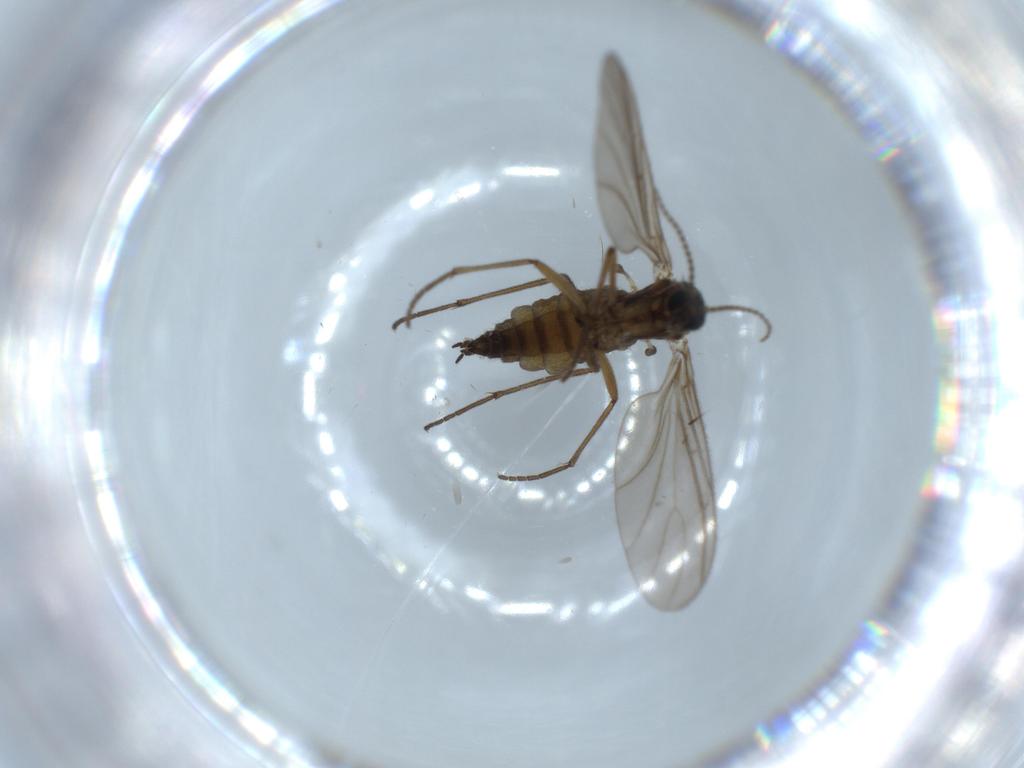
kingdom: Animalia
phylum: Arthropoda
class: Insecta
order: Diptera
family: Sciaridae
